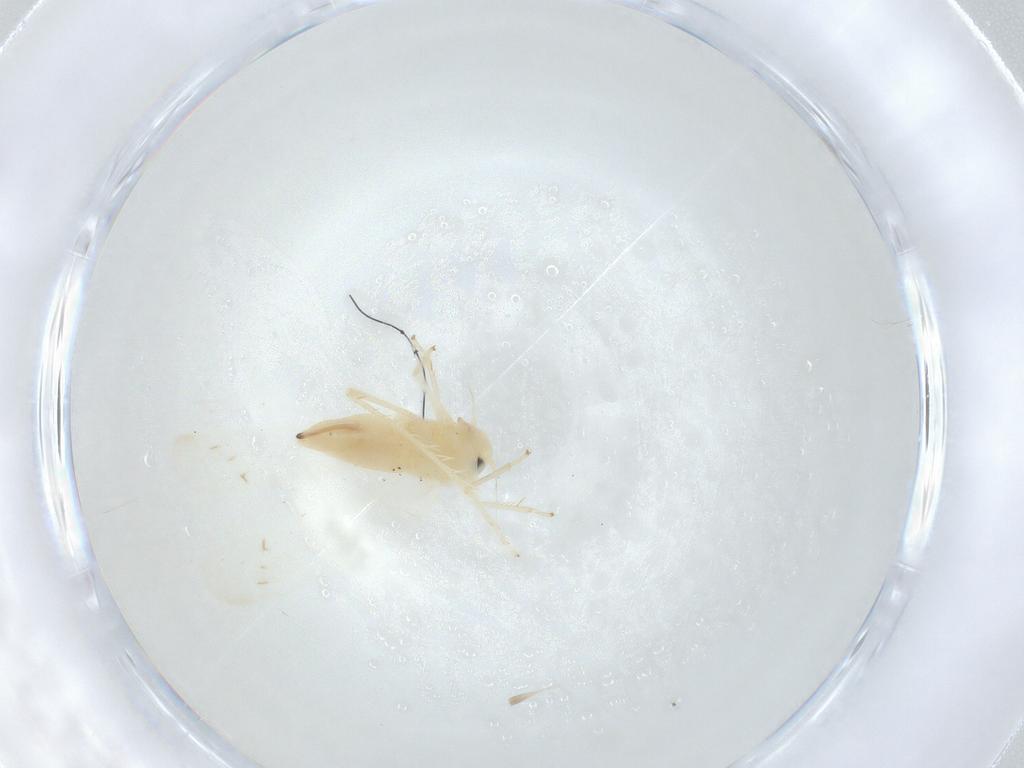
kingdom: Animalia
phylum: Arthropoda
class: Insecta
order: Hemiptera
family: Cicadellidae
